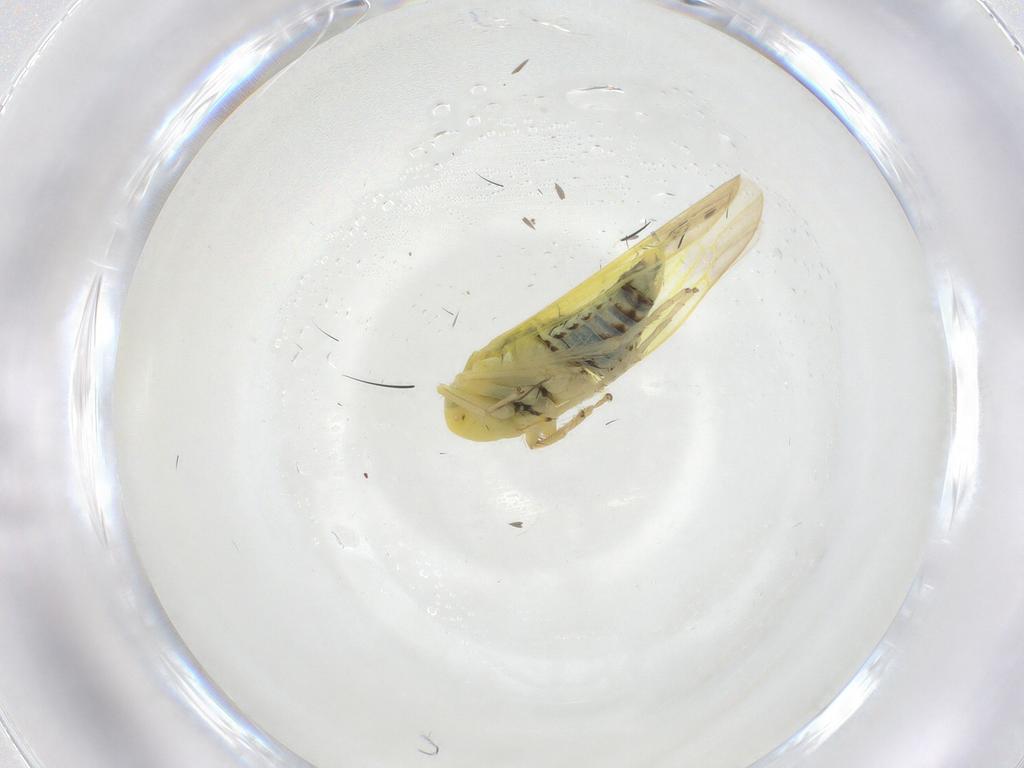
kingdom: Animalia
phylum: Arthropoda
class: Insecta
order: Hemiptera
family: Cicadellidae
